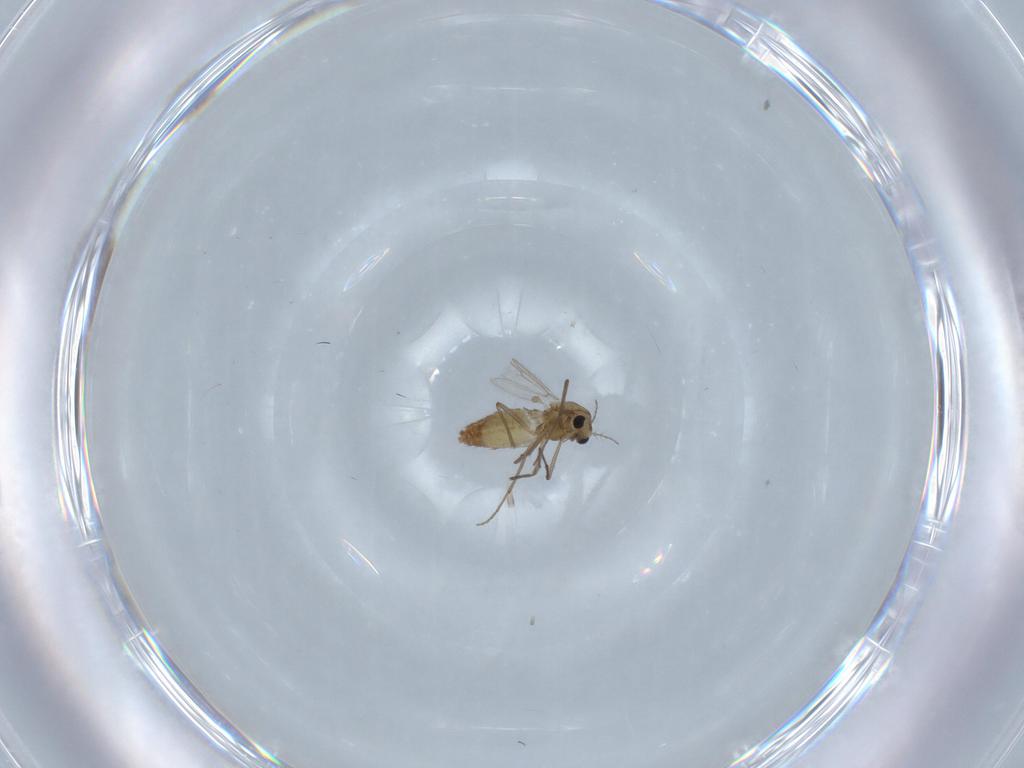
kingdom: Animalia
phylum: Arthropoda
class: Insecta
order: Diptera
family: Chironomidae
